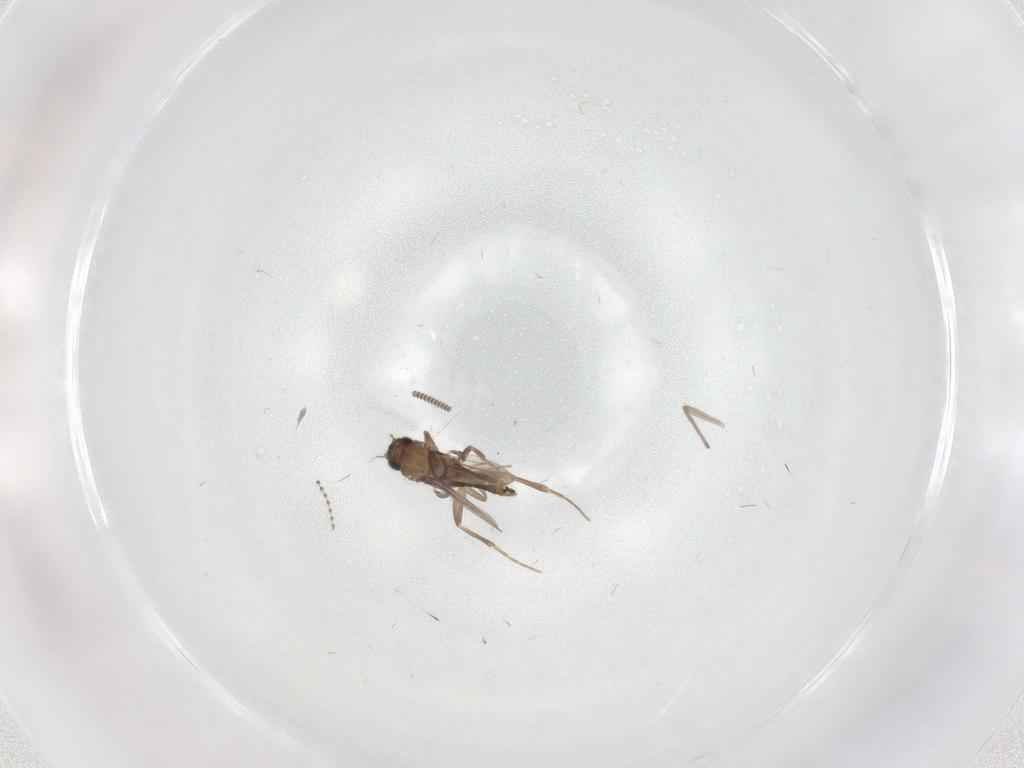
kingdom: Animalia
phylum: Arthropoda
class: Insecta
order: Diptera
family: Chironomidae
